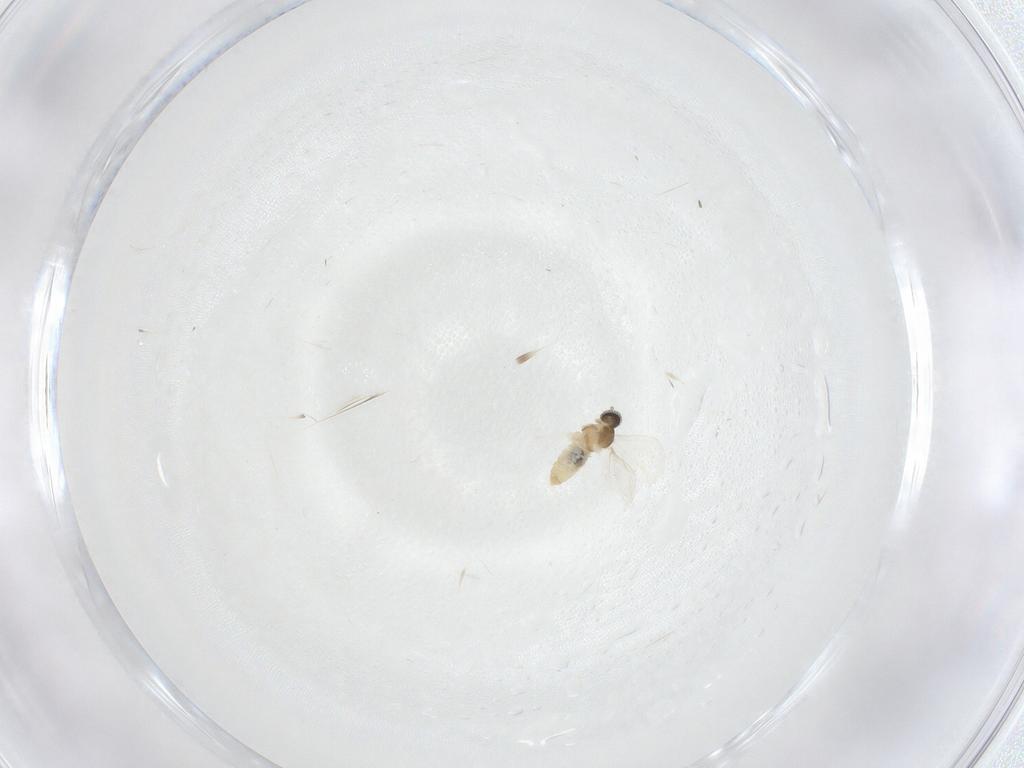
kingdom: Animalia
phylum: Arthropoda
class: Insecta
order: Diptera
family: Cecidomyiidae
